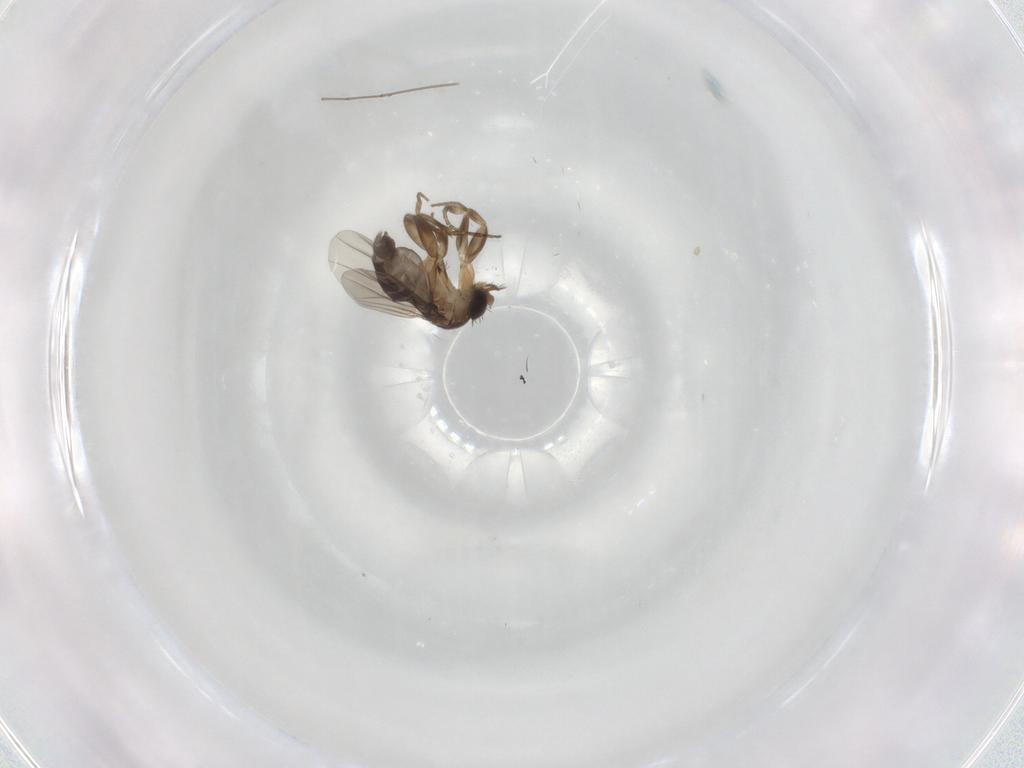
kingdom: Animalia
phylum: Arthropoda
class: Insecta
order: Diptera
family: Phoridae
